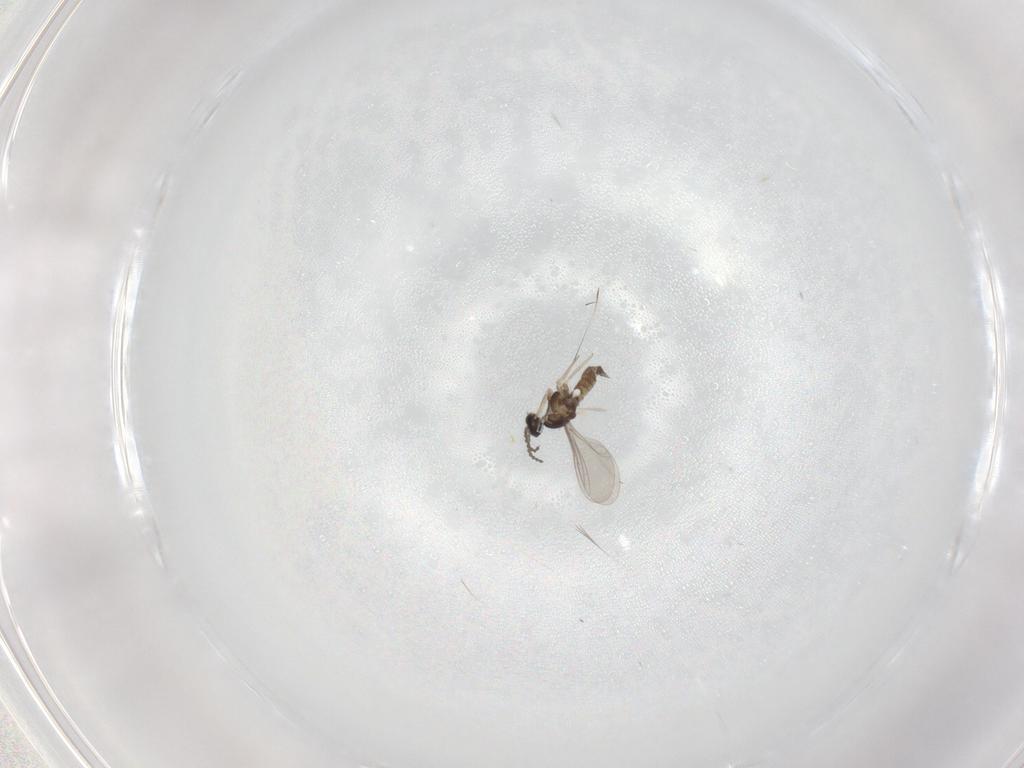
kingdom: Animalia
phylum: Arthropoda
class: Insecta
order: Diptera
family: Cecidomyiidae
